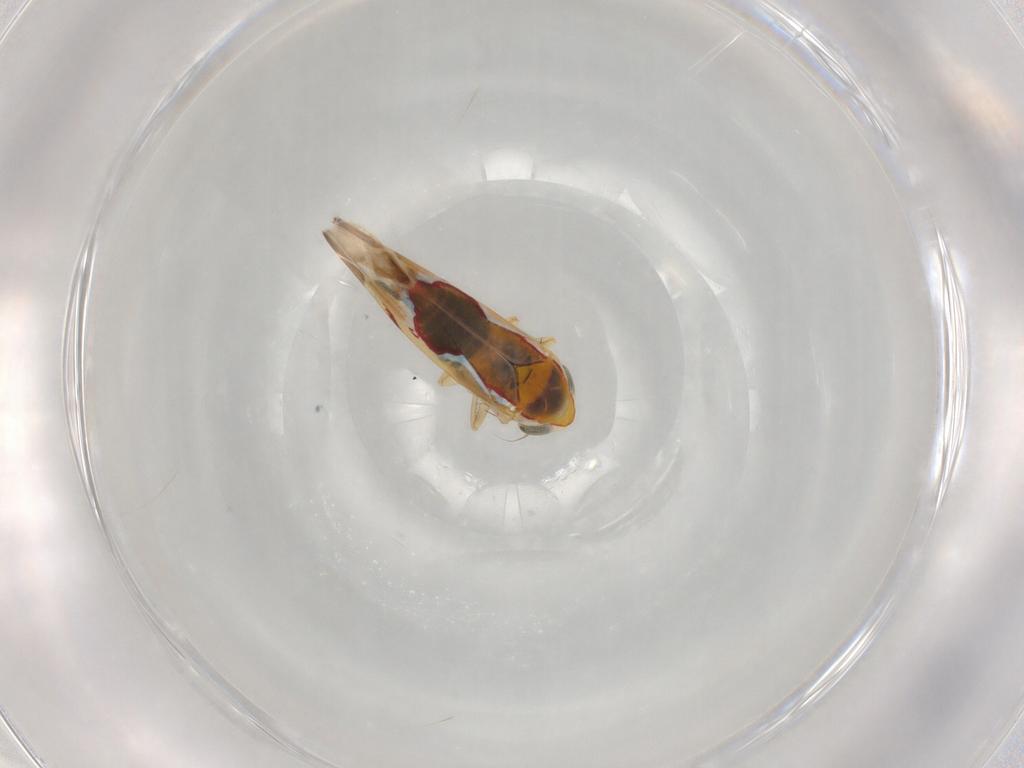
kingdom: Animalia
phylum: Arthropoda
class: Insecta
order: Hemiptera
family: Cicadellidae
